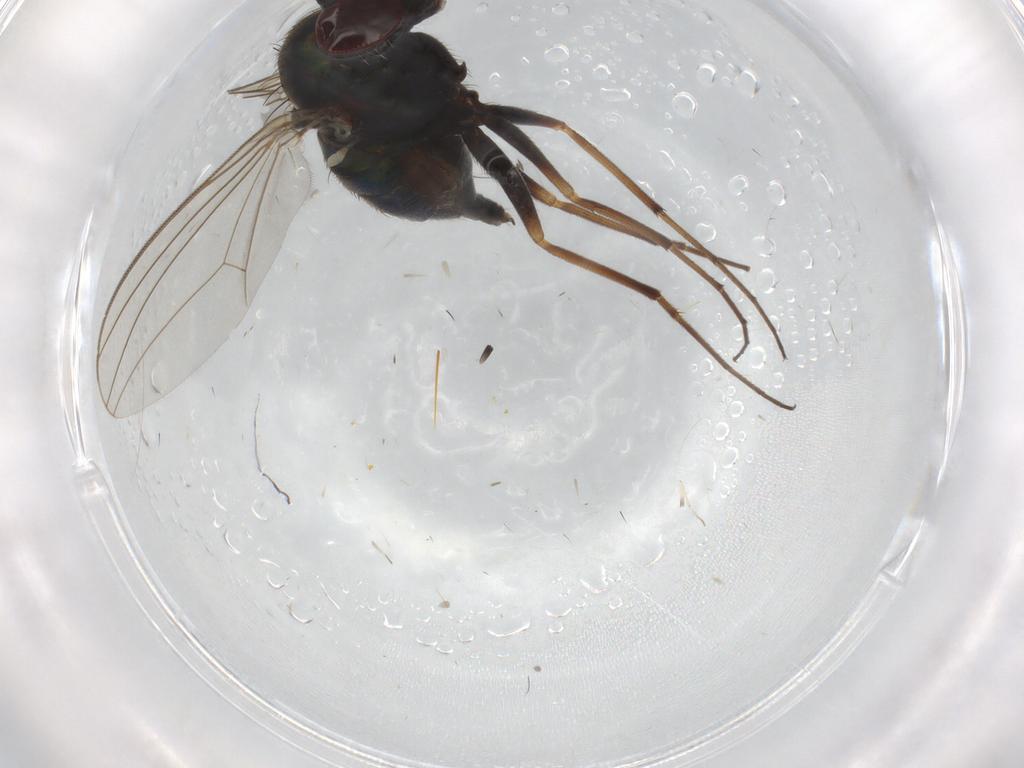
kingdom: Animalia
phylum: Arthropoda
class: Insecta
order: Diptera
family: Dolichopodidae
